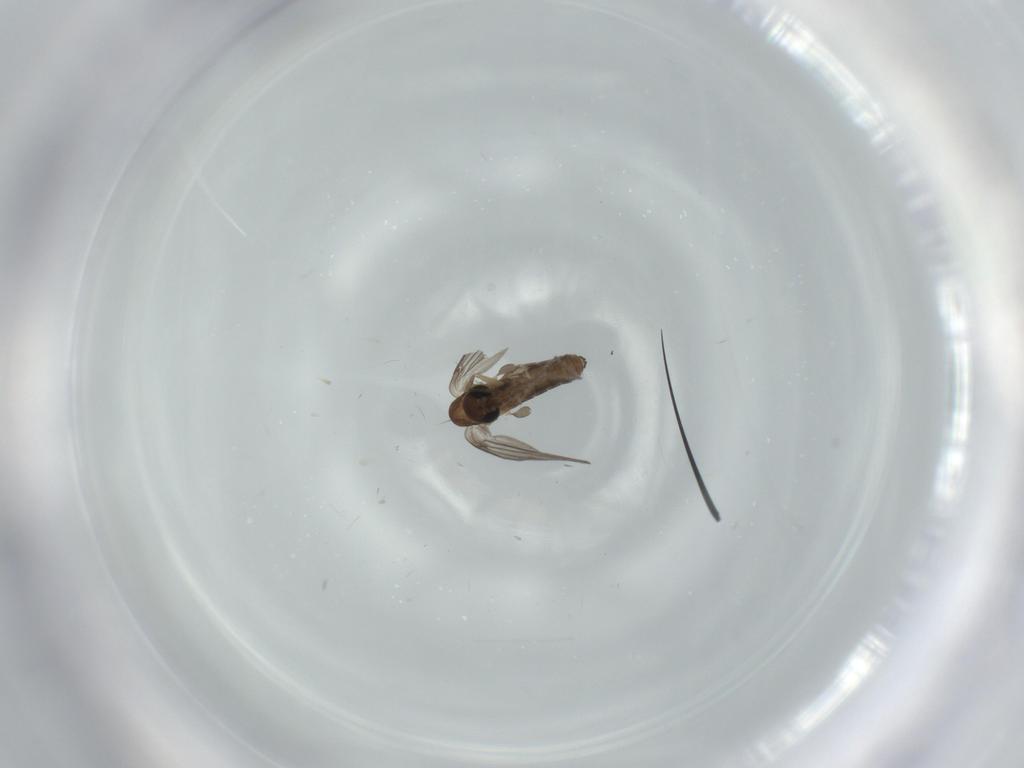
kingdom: Animalia
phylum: Arthropoda
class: Insecta
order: Diptera
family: Psychodidae
